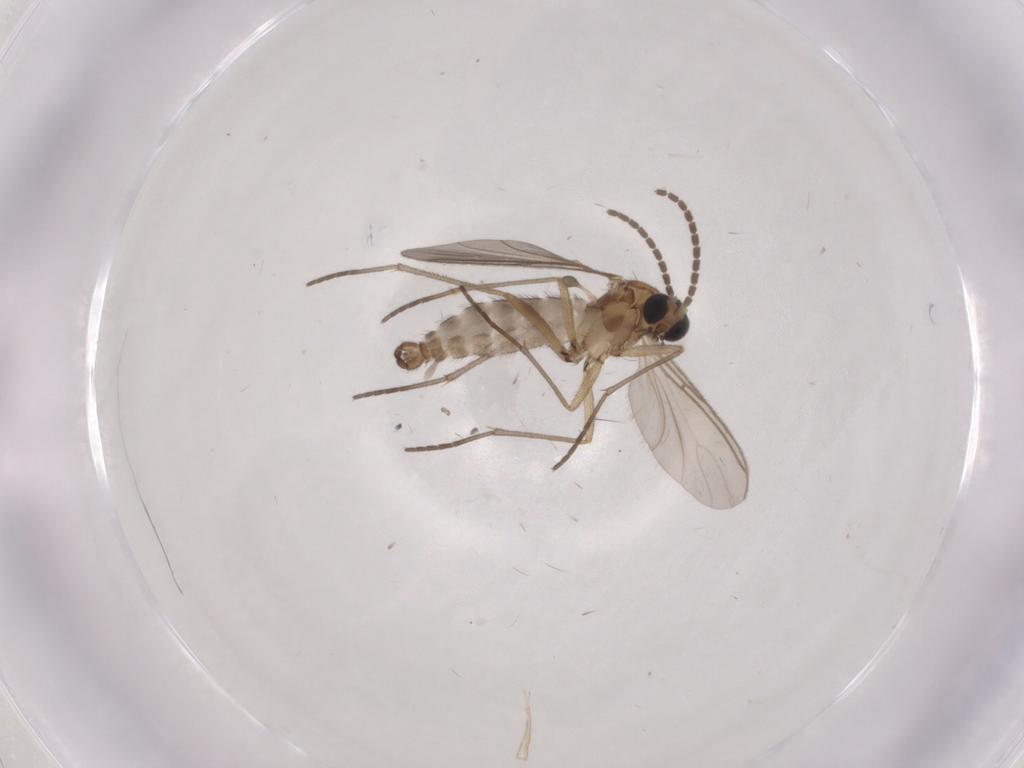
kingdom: Animalia
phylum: Arthropoda
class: Insecta
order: Diptera
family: Sciaridae
